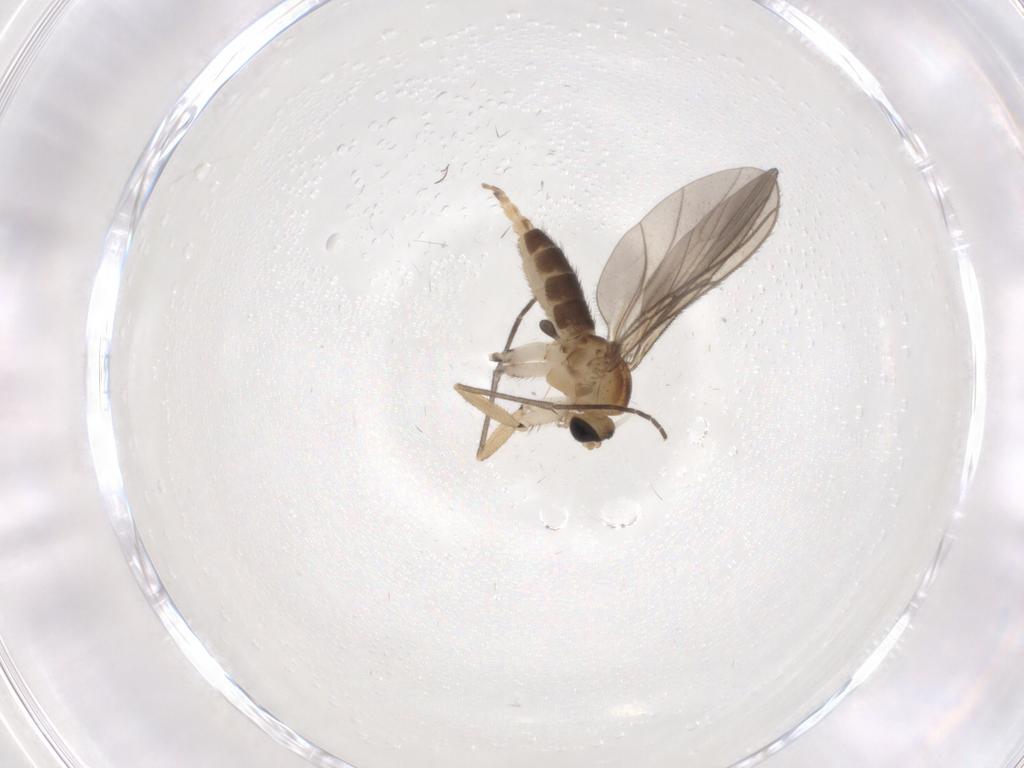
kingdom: Animalia
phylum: Arthropoda
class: Insecta
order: Diptera
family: Sciaridae
